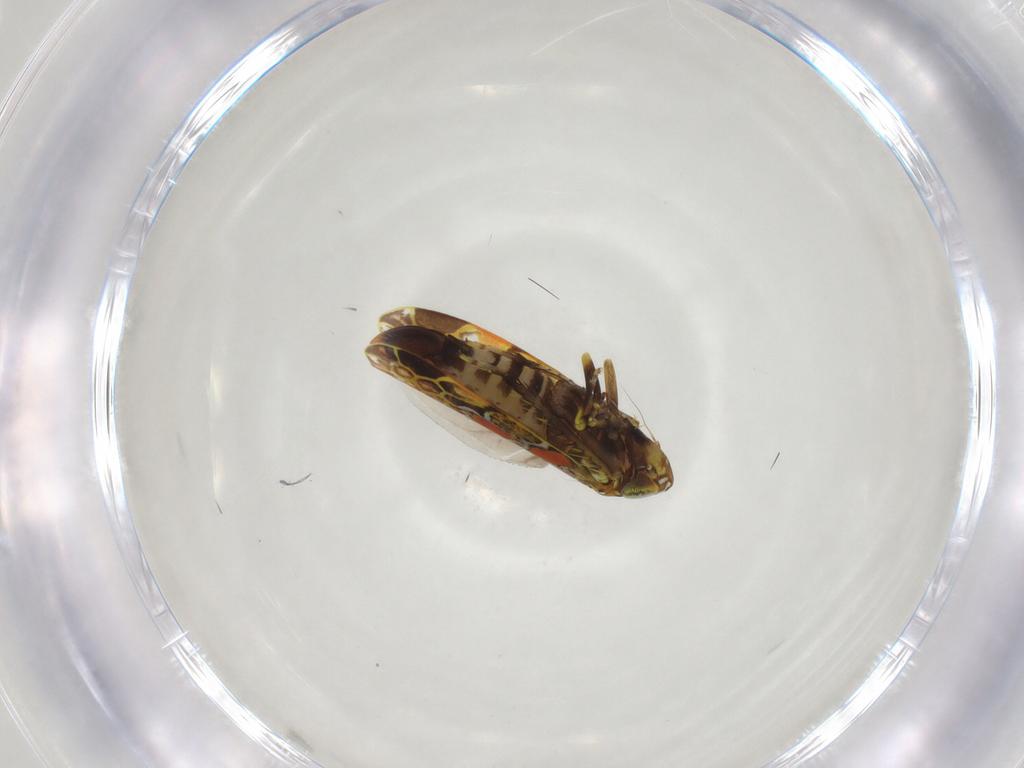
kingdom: Animalia
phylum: Arthropoda
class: Insecta
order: Hemiptera
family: Cicadellidae
